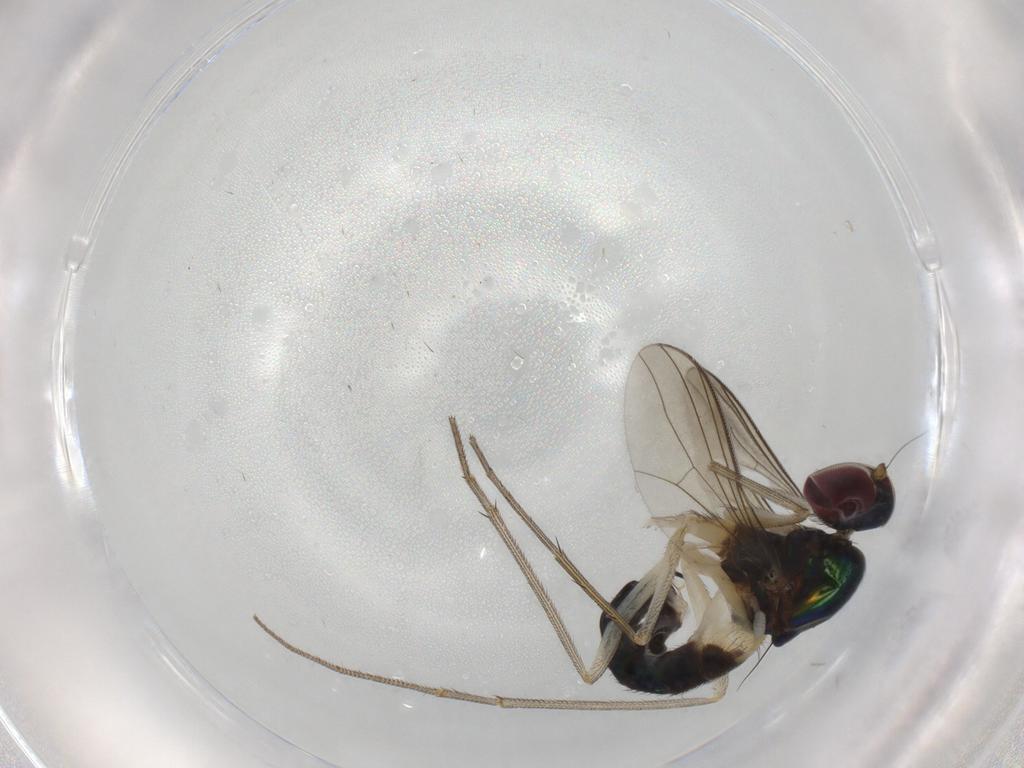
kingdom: Animalia
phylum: Arthropoda
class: Insecta
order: Diptera
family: Dolichopodidae
